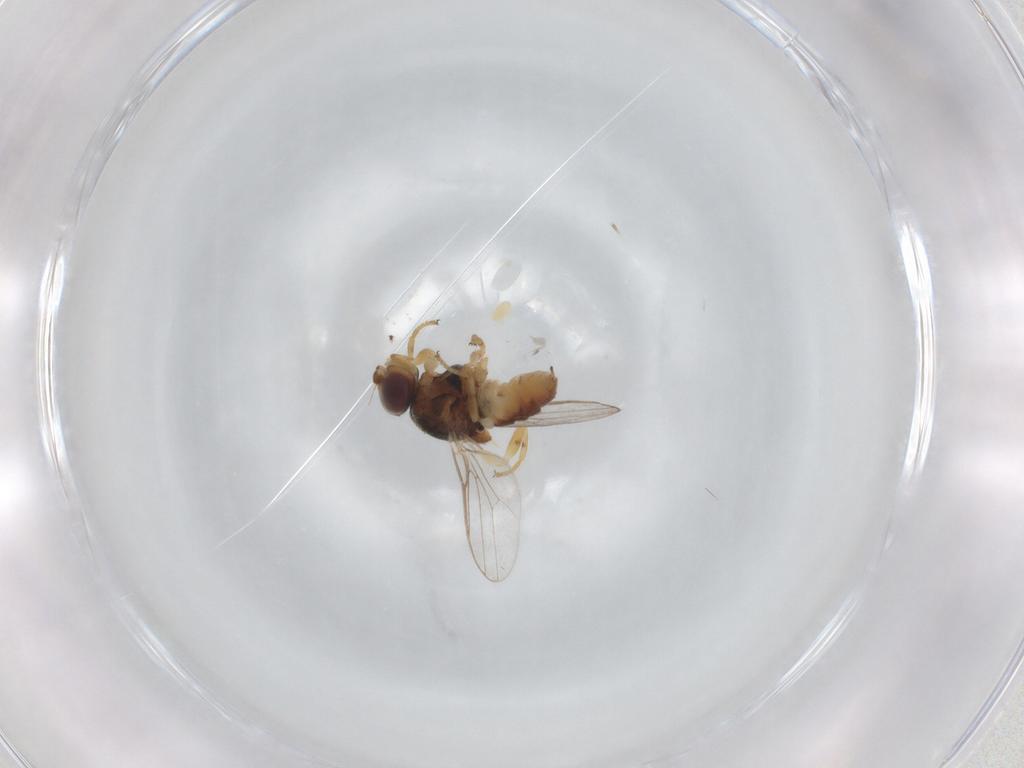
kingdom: Animalia
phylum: Arthropoda
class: Insecta
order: Diptera
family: Chloropidae
